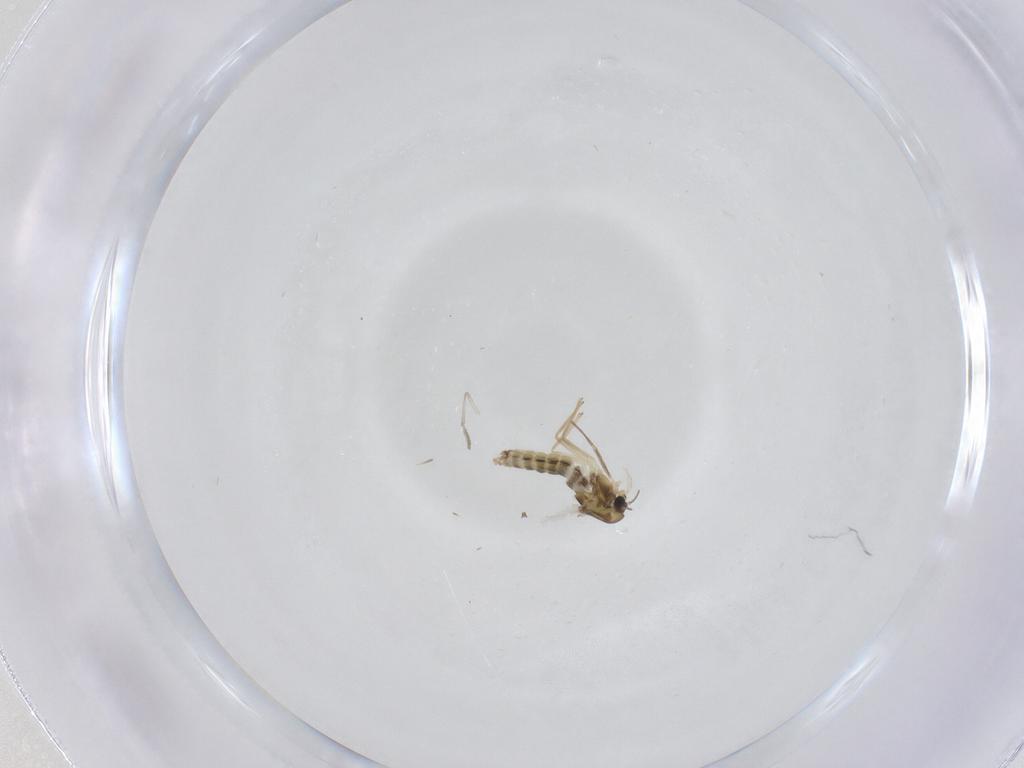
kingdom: Animalia
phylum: Arthropoda
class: Insecta
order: Diptera
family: Chironomidae
